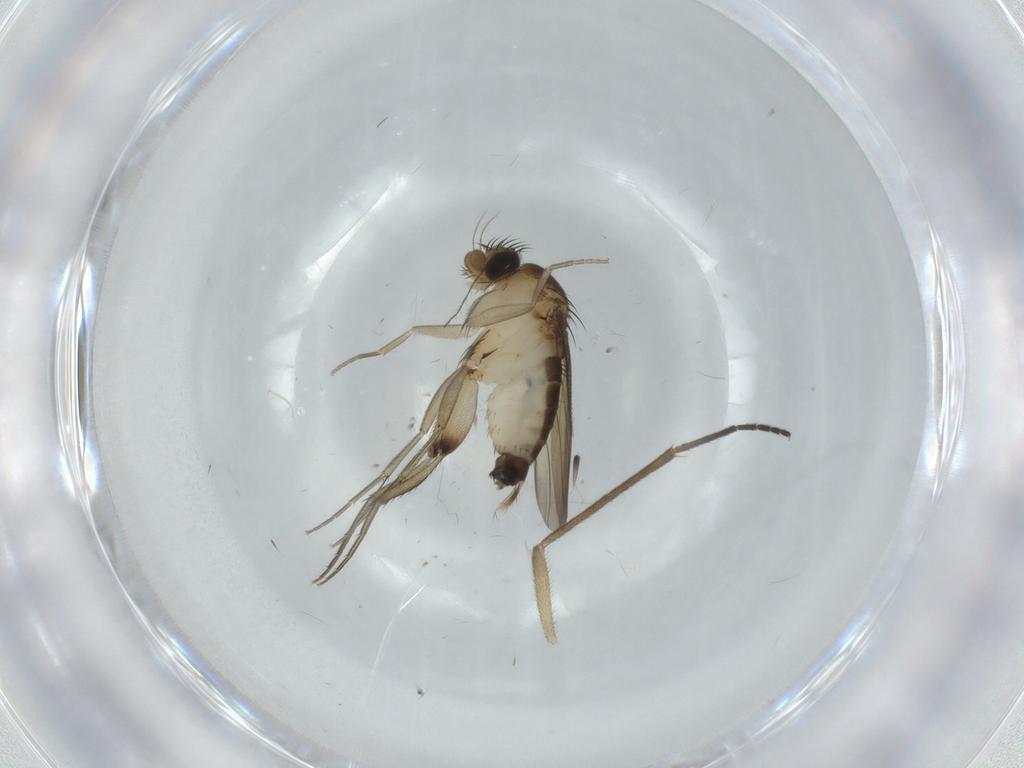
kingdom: Animalia
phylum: Arthropoda
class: Insecta
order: Diptera
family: Phoridae
